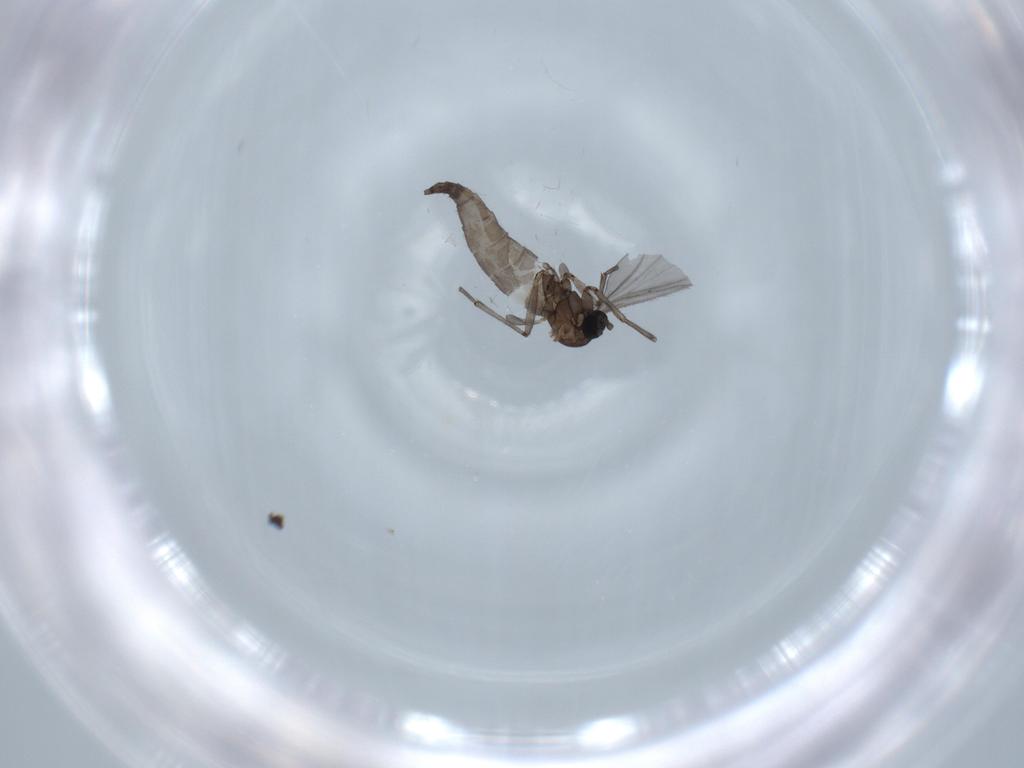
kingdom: Animalia
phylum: Arthropoda
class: Insecta
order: Diptera
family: Sciaridae
